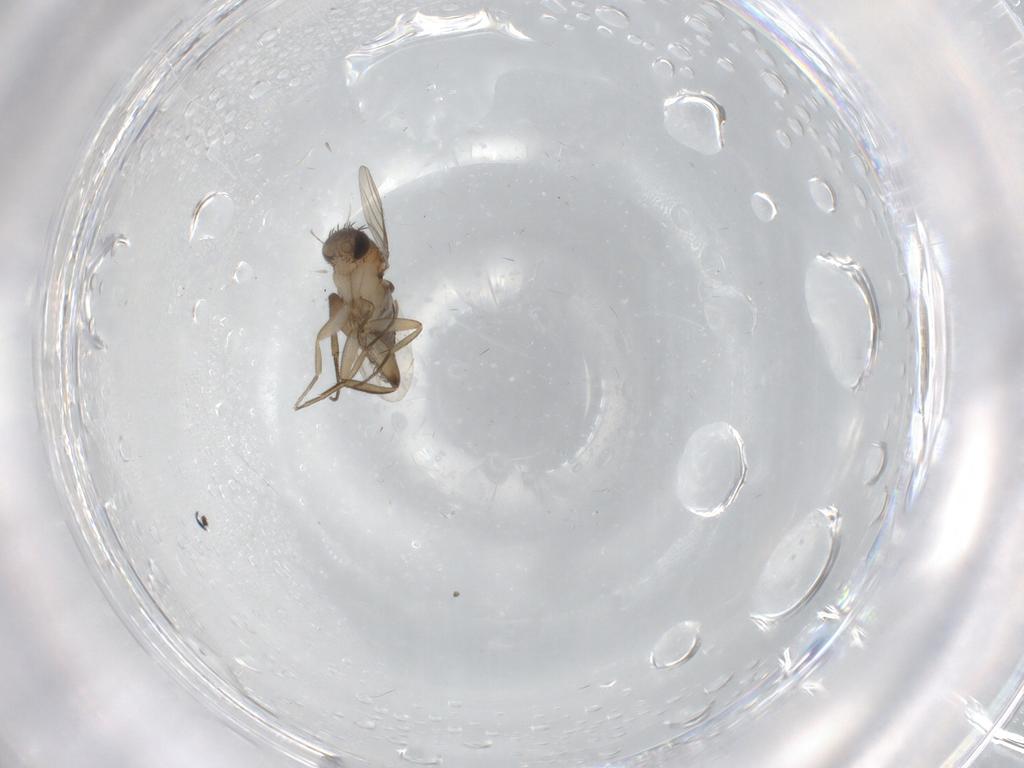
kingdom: Animalia
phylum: Arthropoda
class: Insecta
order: Diptera
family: Phoridae
